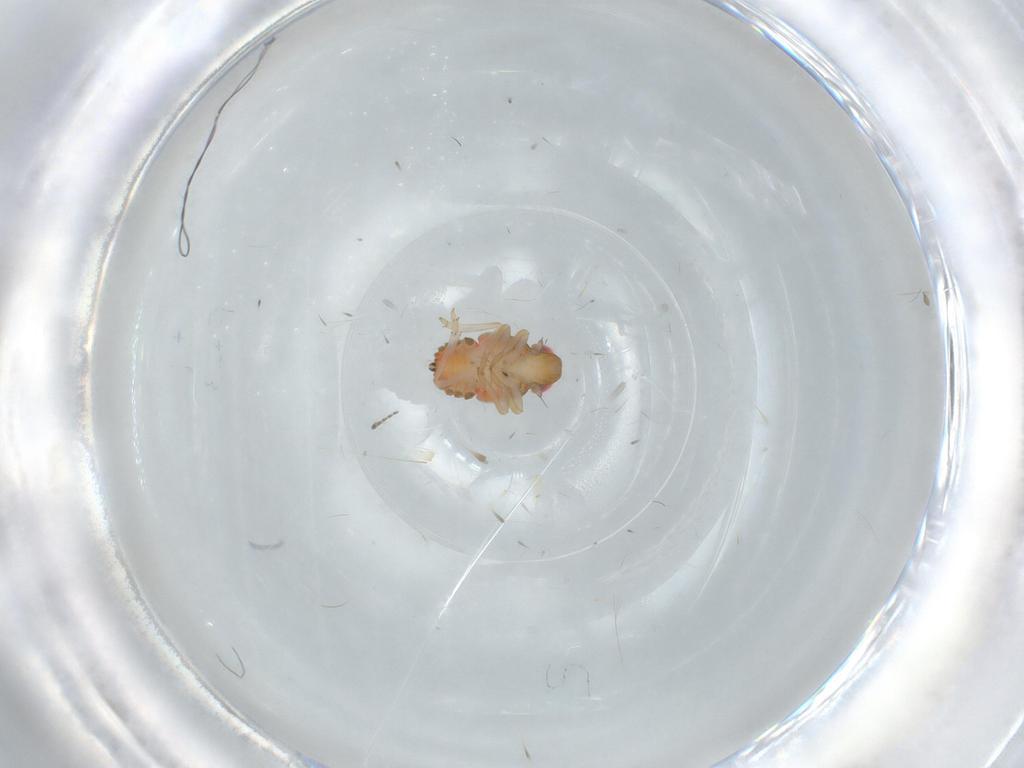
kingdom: Animalia
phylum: Arthropoda
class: Insecta
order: Hemiptera
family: Issidae
